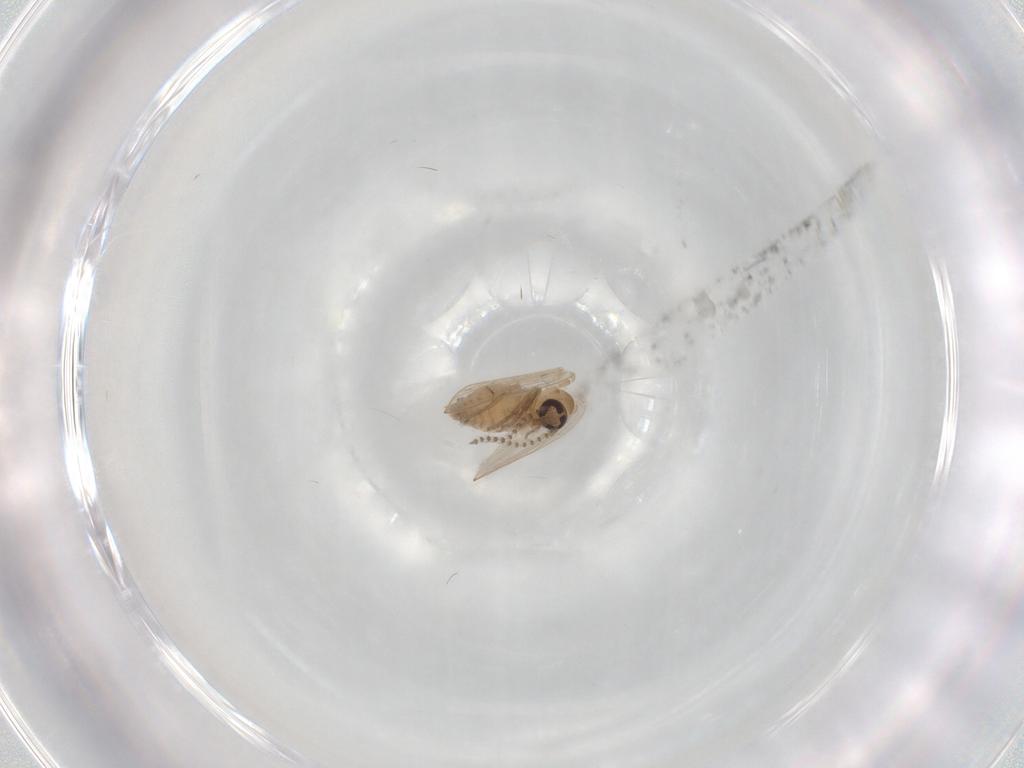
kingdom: Animalia
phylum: Arthropoda
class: Insecta
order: Diptera
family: Psychodidae
